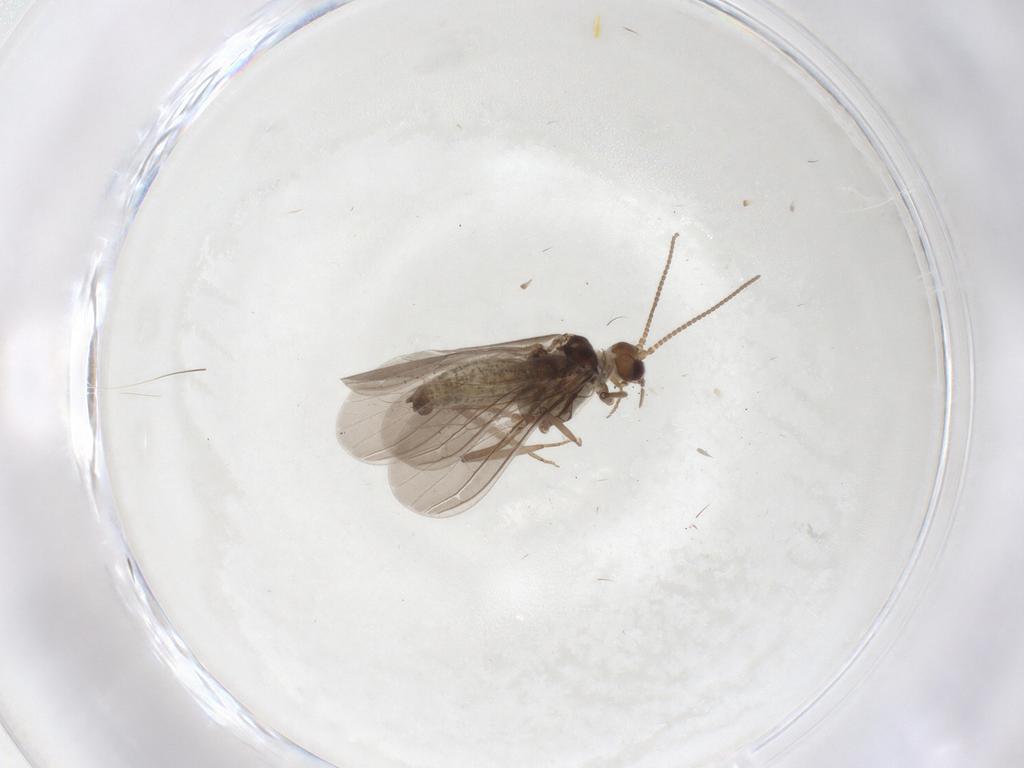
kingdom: Animalia
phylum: Arthropoda
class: Insecta
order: Neuroptera
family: Coniopterygidae
